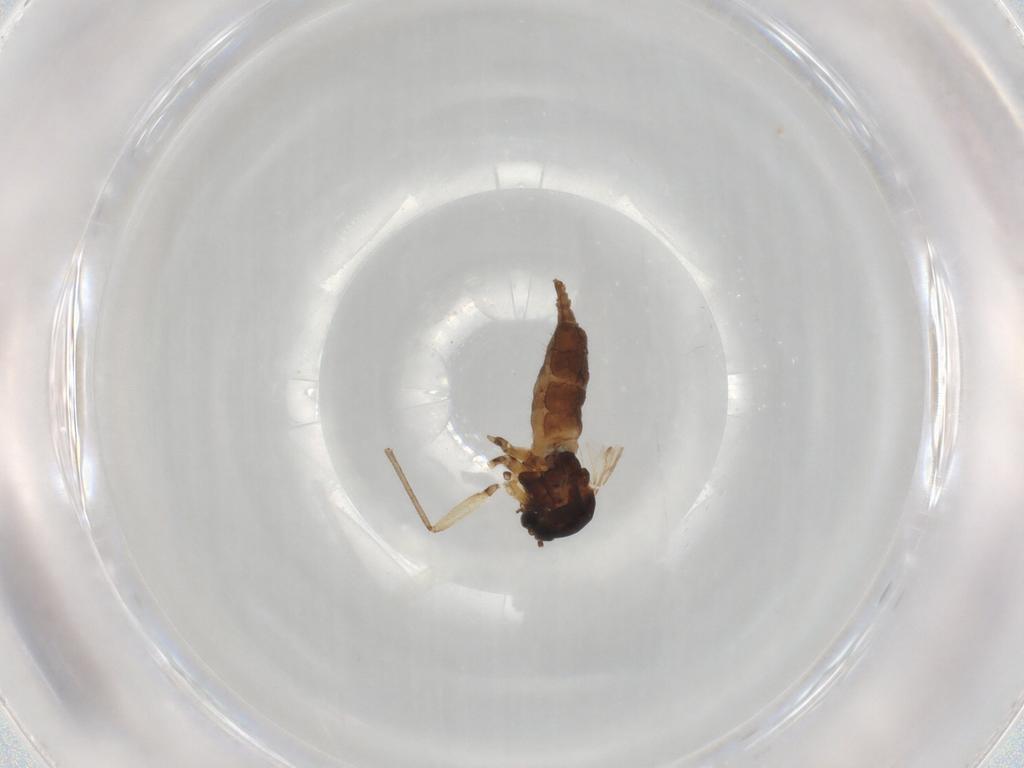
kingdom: Animalia
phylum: Arthropoda
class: Insecta
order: Diptera
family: Sciaridae
